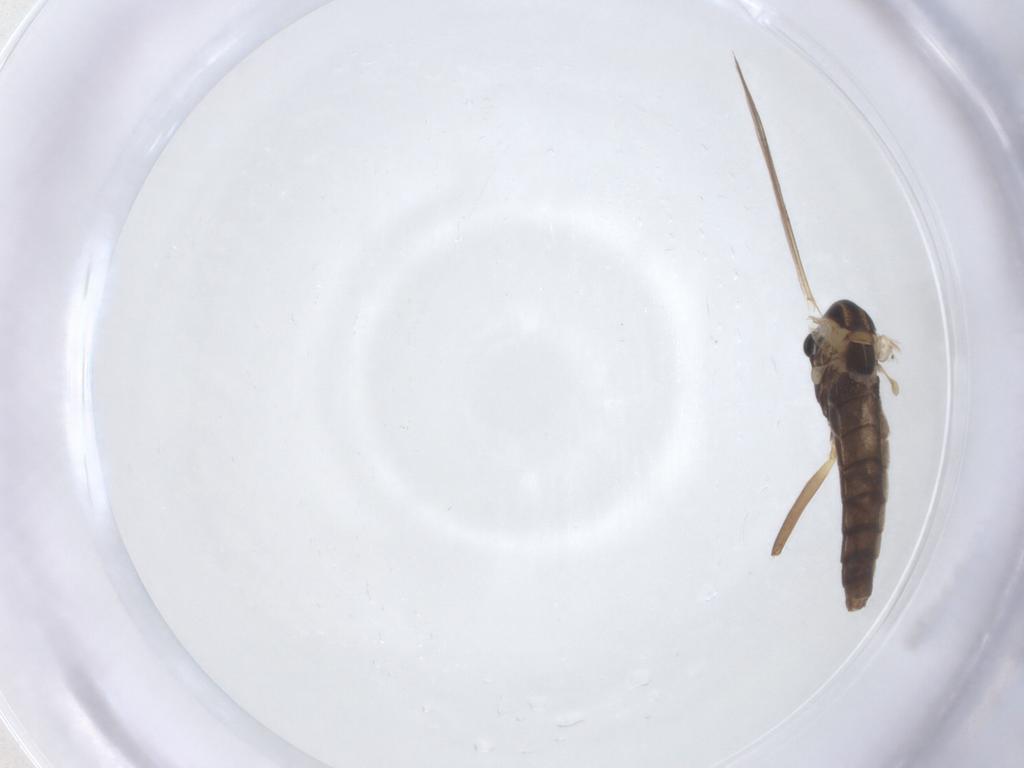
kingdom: Animalia
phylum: Arthropoda
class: Insecta
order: Diptera
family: Chironomidae
